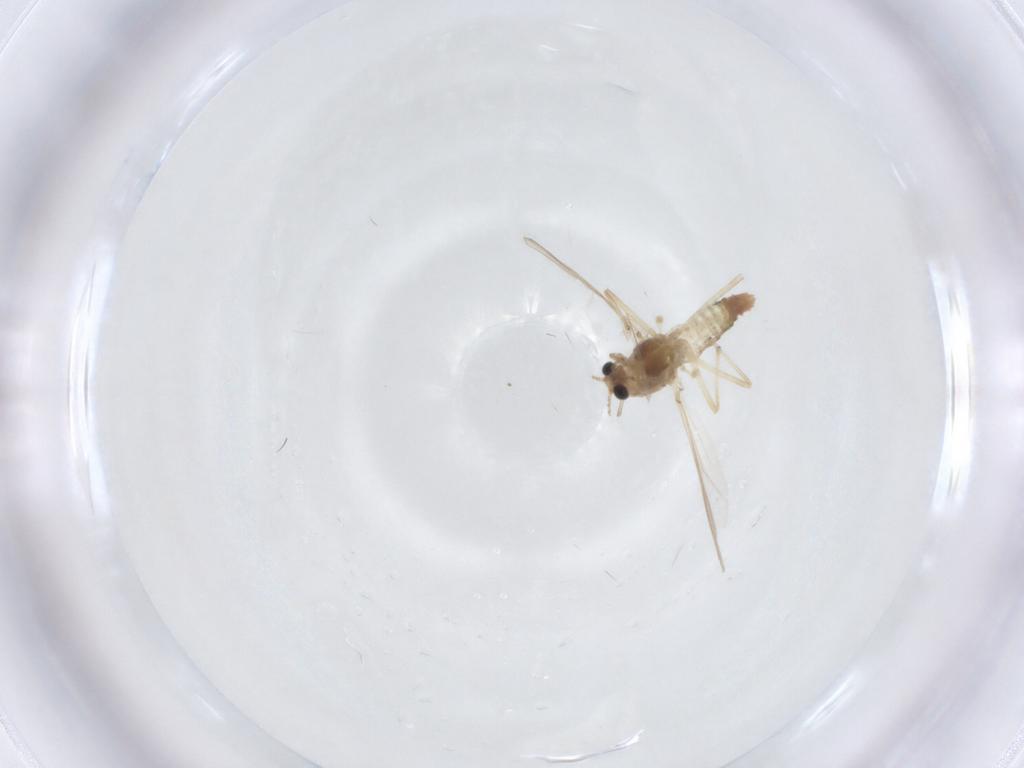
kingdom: Animalia
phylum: Arthropoda
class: Insecta
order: Diptera
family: Chironomidae
